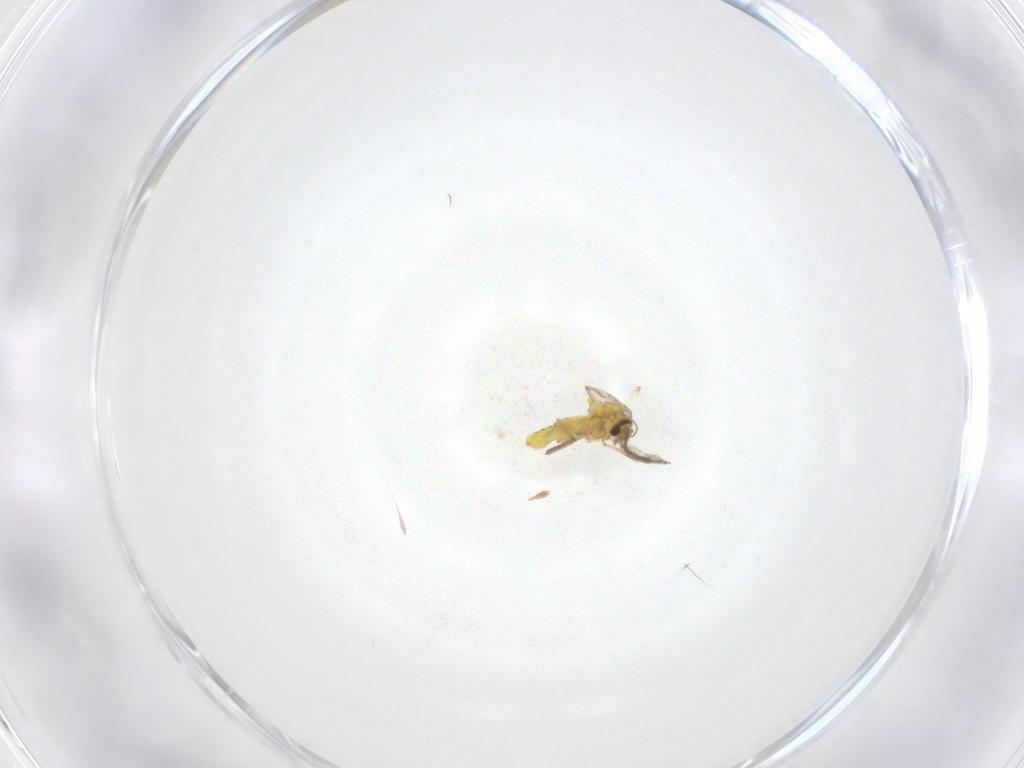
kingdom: Animalia
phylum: Arthropoda
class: Insecta
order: Diptera
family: Ceratopogonidae
